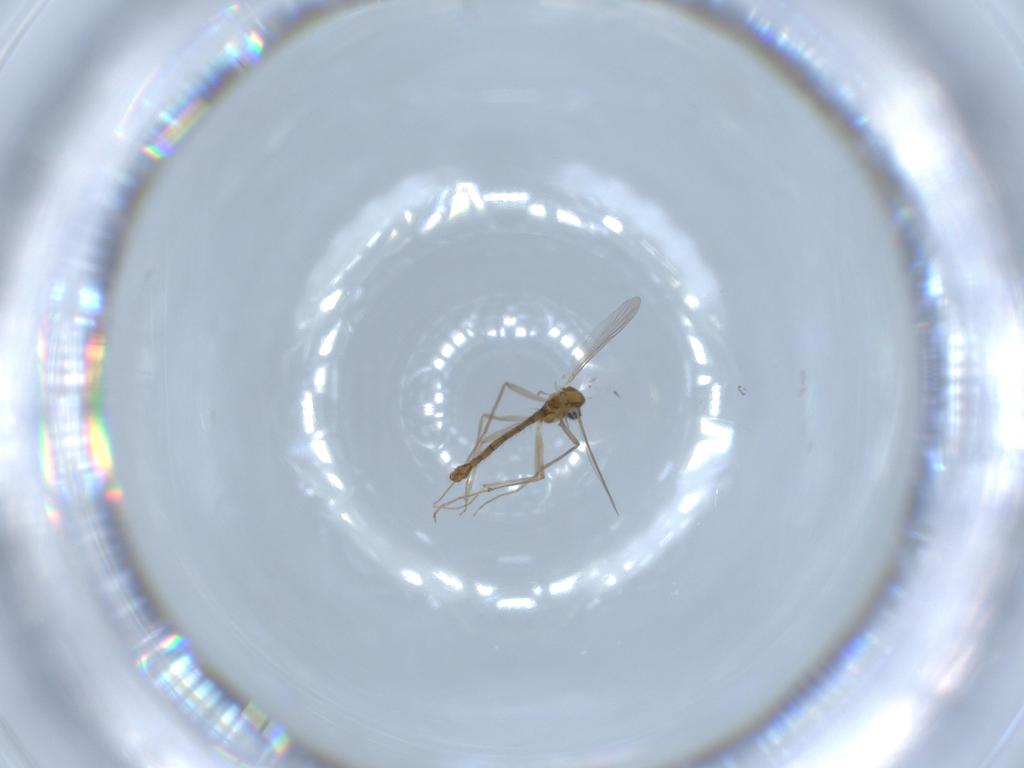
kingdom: Animalia
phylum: Arthropoda
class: Insecta
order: Diptera
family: Chironomidae
